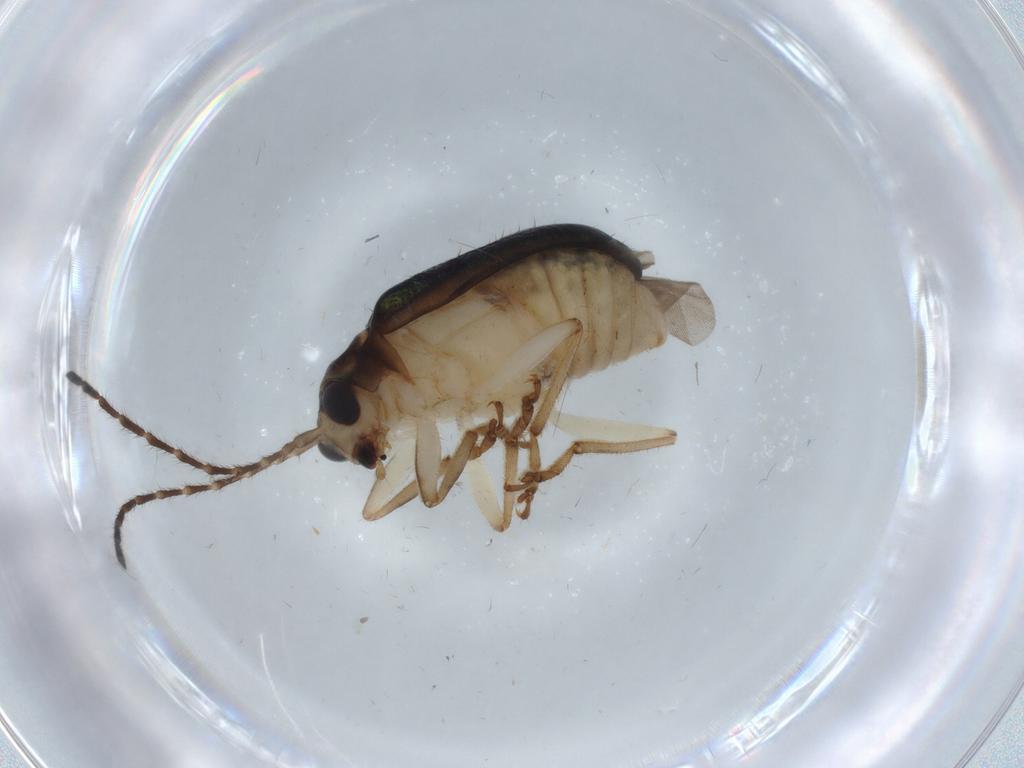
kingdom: Animalia
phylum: Arthropoda
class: Insecta
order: Coleoptera
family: Chrysomelidae
